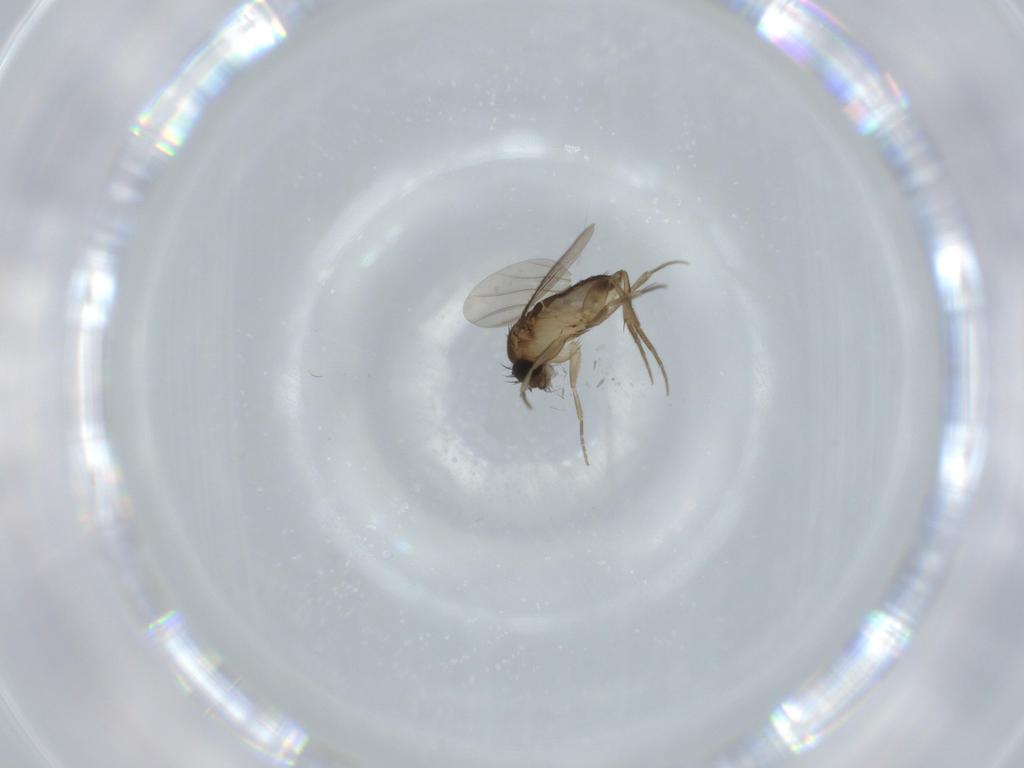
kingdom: Animalia
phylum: Arthropoda
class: Insecta
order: Diptera
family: Phoridae
